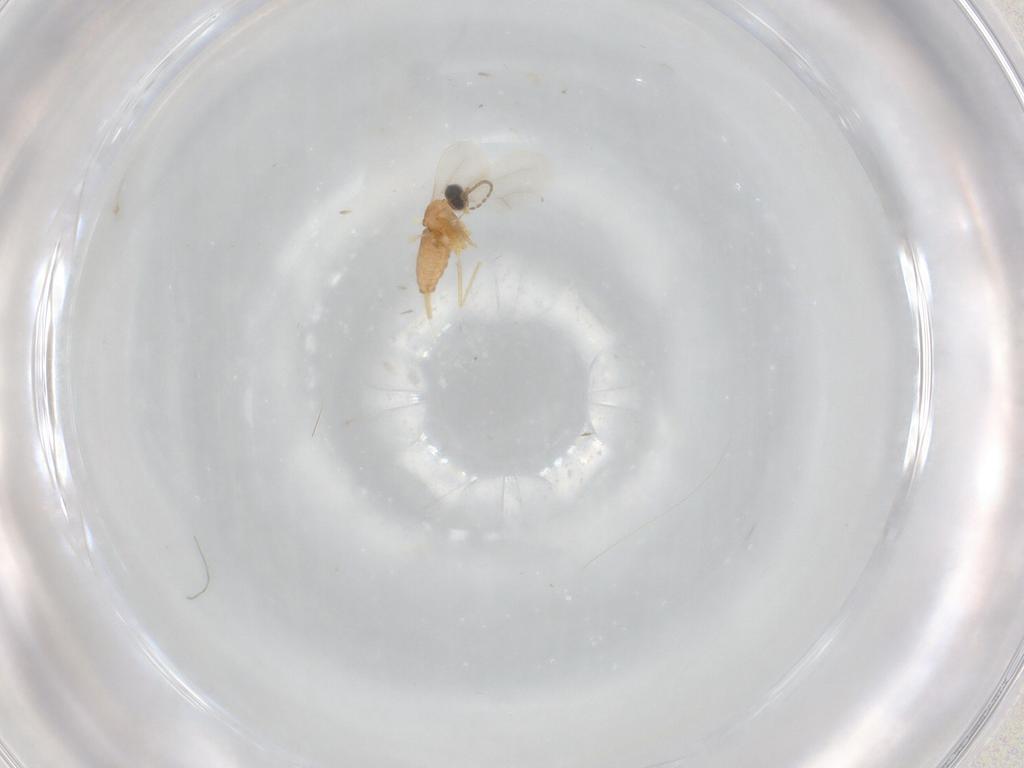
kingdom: Animalia
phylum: Arthropoda
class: Insecta
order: Diptera
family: Cecidomyiidae
